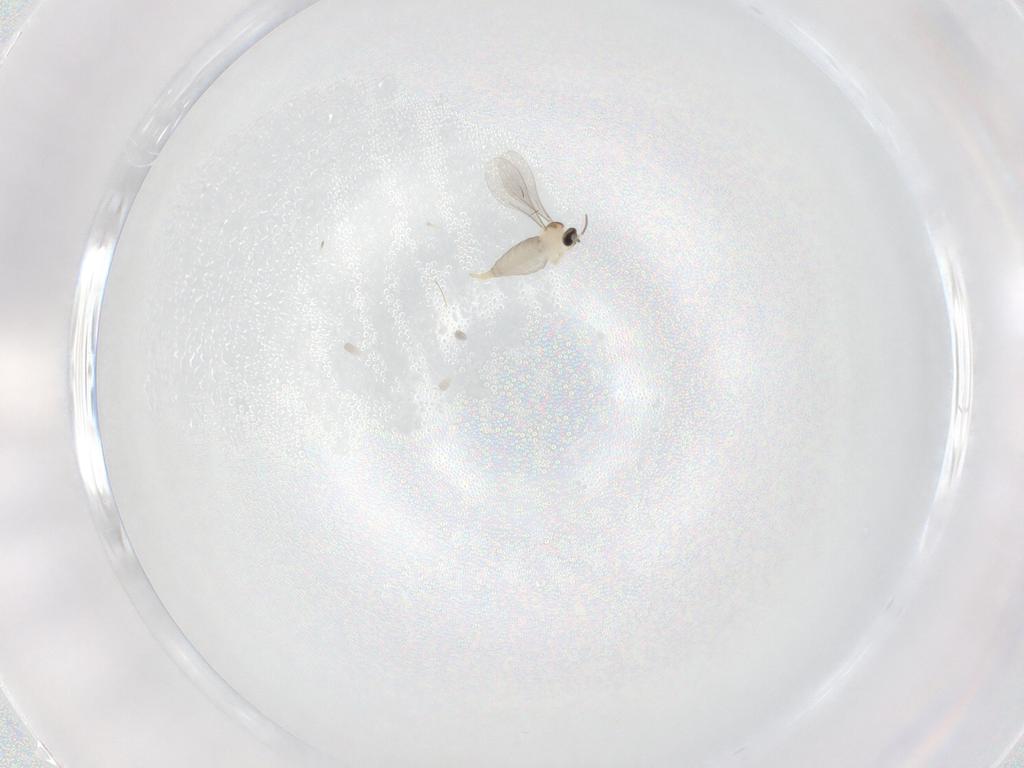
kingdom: Animalia
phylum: Arthropoda
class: Insecta
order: Diptera
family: Cecidomyiidae
